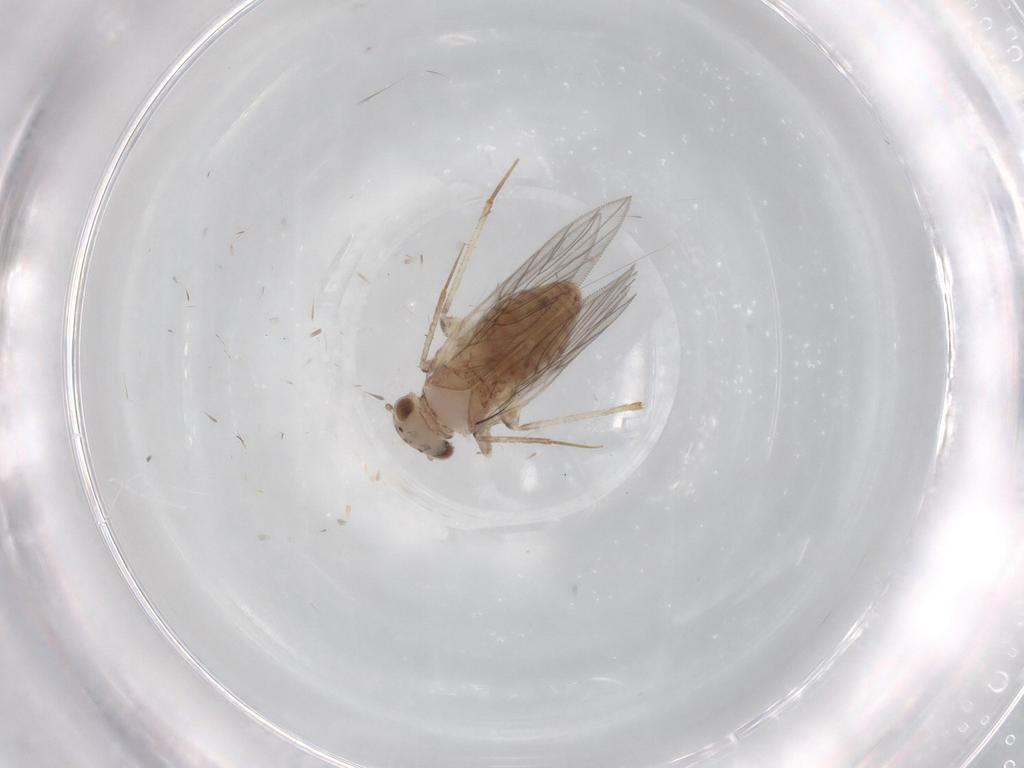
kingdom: Animalia
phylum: Arthropoda
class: Insecta
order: Psocodea
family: Lepidopsocidae
